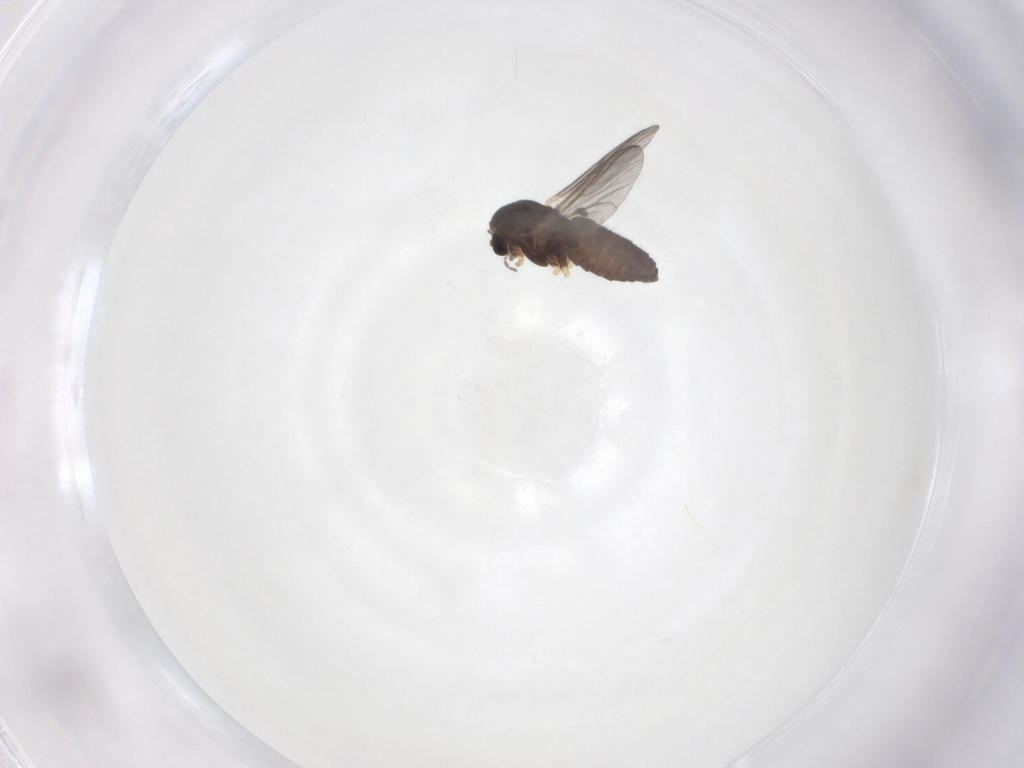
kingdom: Animalia
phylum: Arthropoda
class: Insecta
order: Diptera
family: Chironomidae
